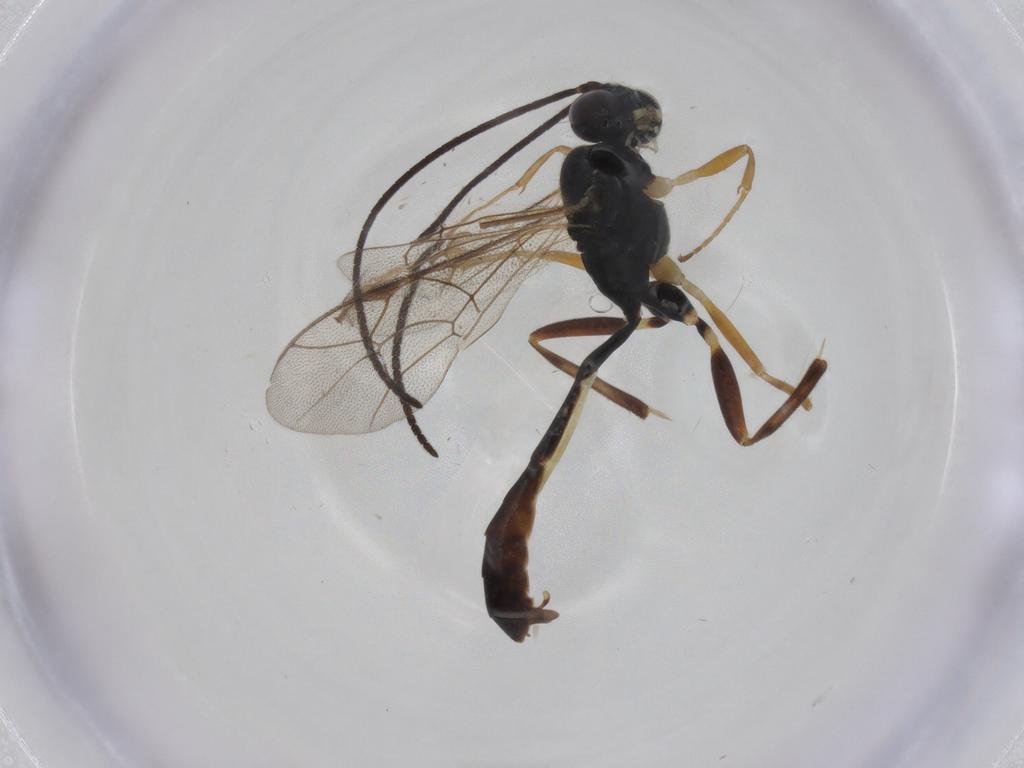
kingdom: Animalia
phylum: Arthropoda
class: Insecta
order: Hymenoptera
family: Ichneumonidae
